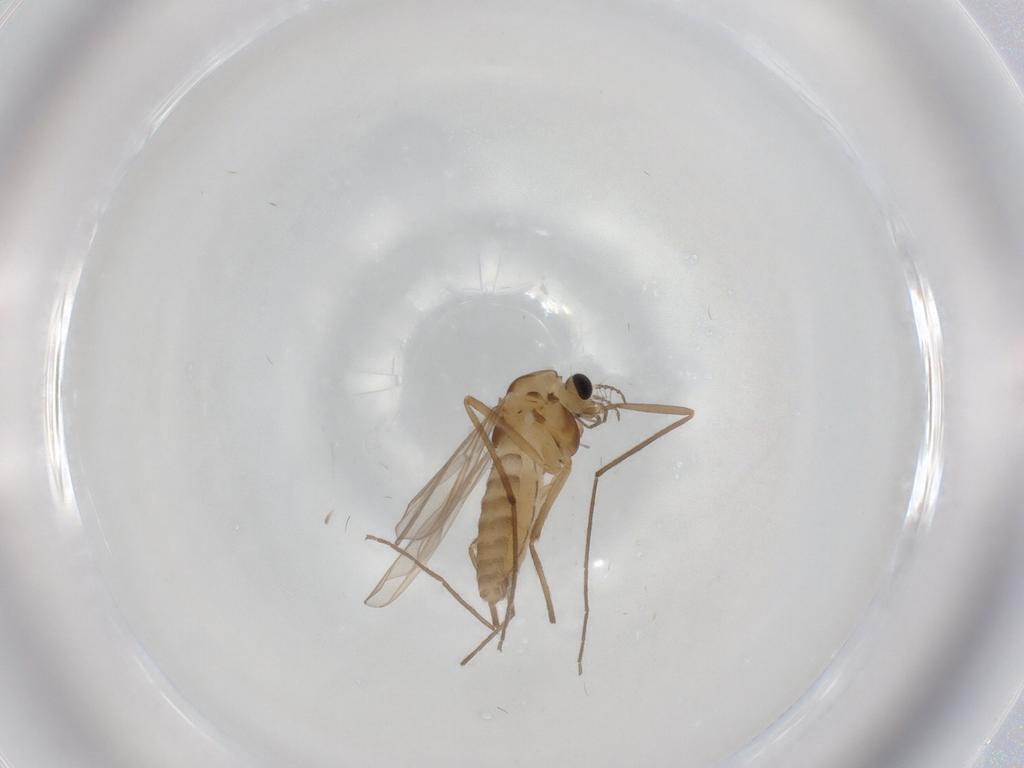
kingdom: Animalia
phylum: Arthropoda
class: Insecta
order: Diptera
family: Chironomidae
